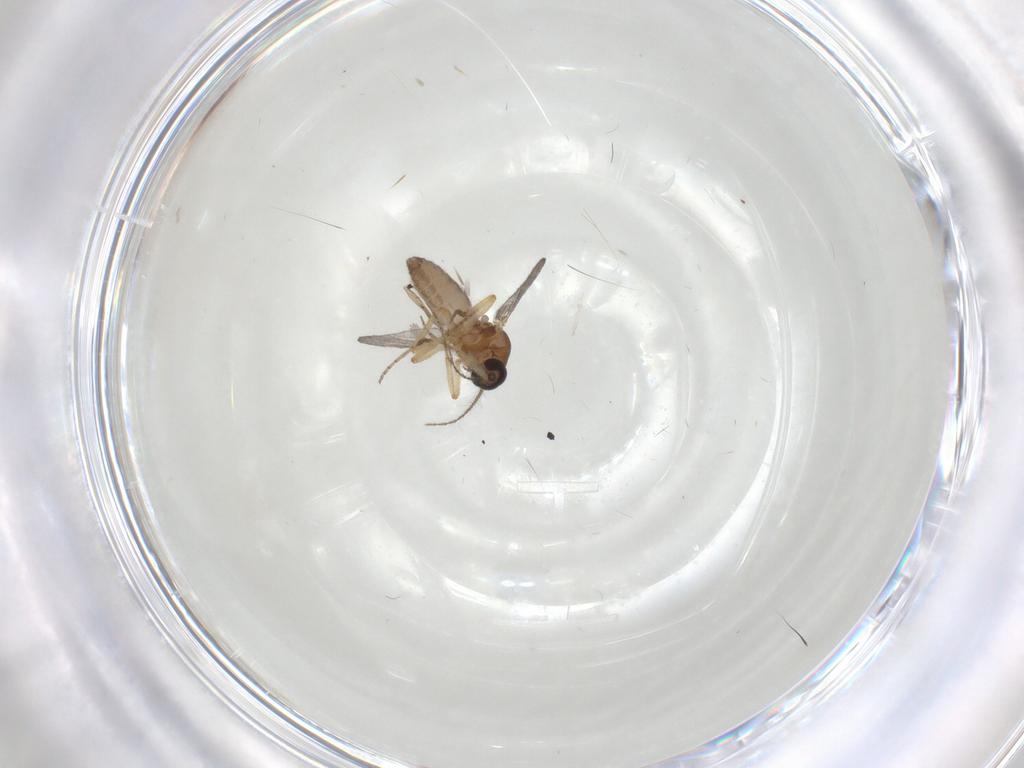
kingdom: Animalia
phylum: Arthropoda
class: Insecta
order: Diptera
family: Ceratopogonidae
